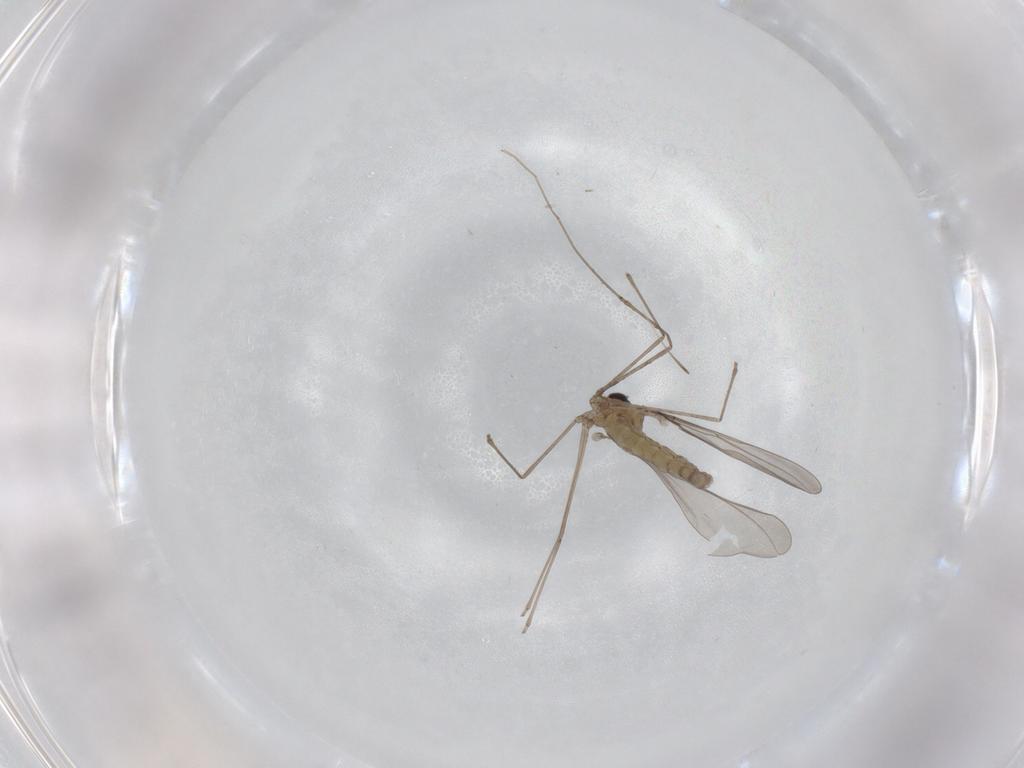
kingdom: Animalia
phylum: Arthropoda
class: Insecta
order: Diptera
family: Cecidomyiidae
